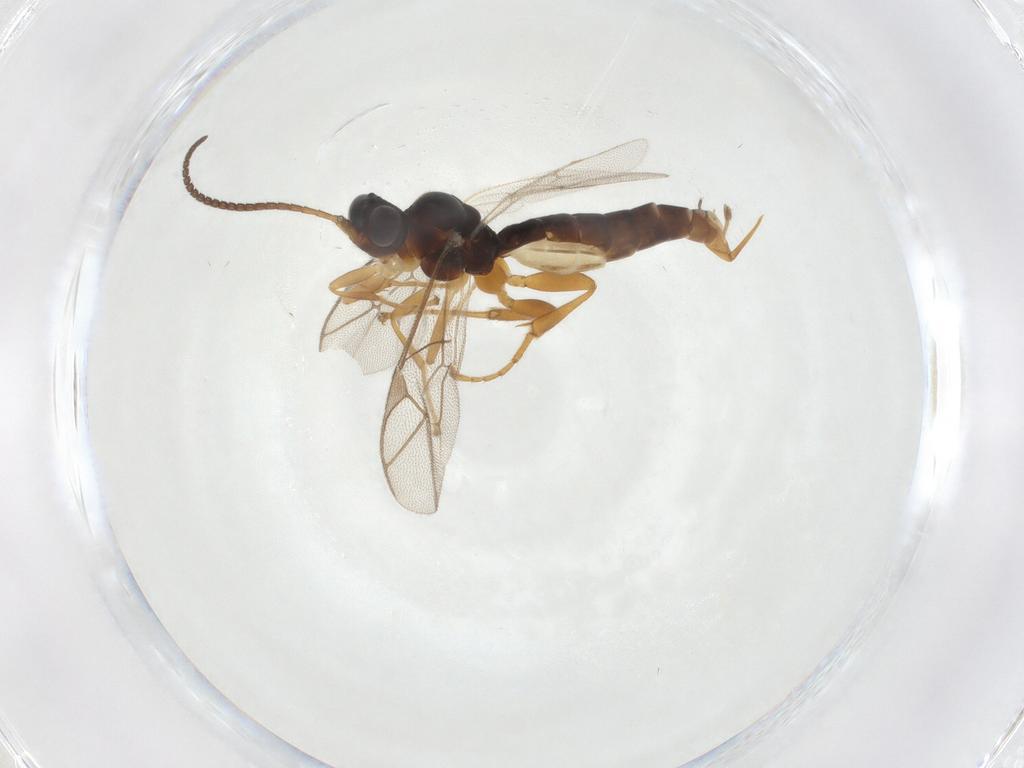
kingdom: Animalia
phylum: Arthropoda
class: Insecta
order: Hymenoptera
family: Ichneumonidae
